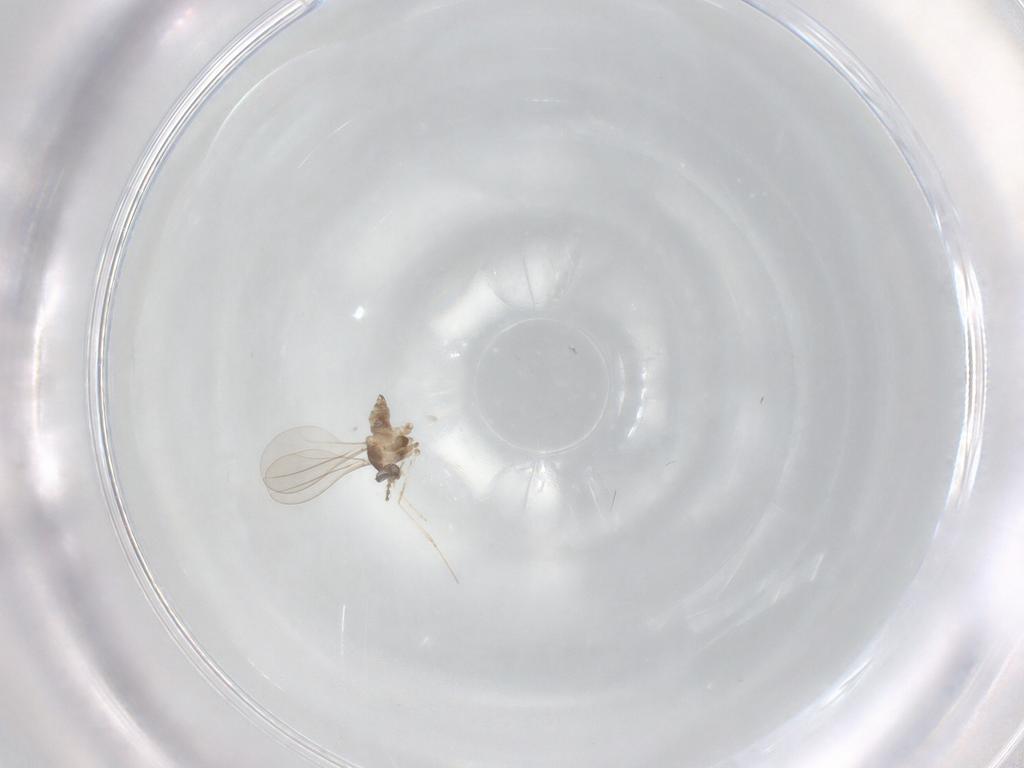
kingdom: Animalia
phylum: Arthropoda
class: Insecta
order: Diptera
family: Cecidomyiidae
